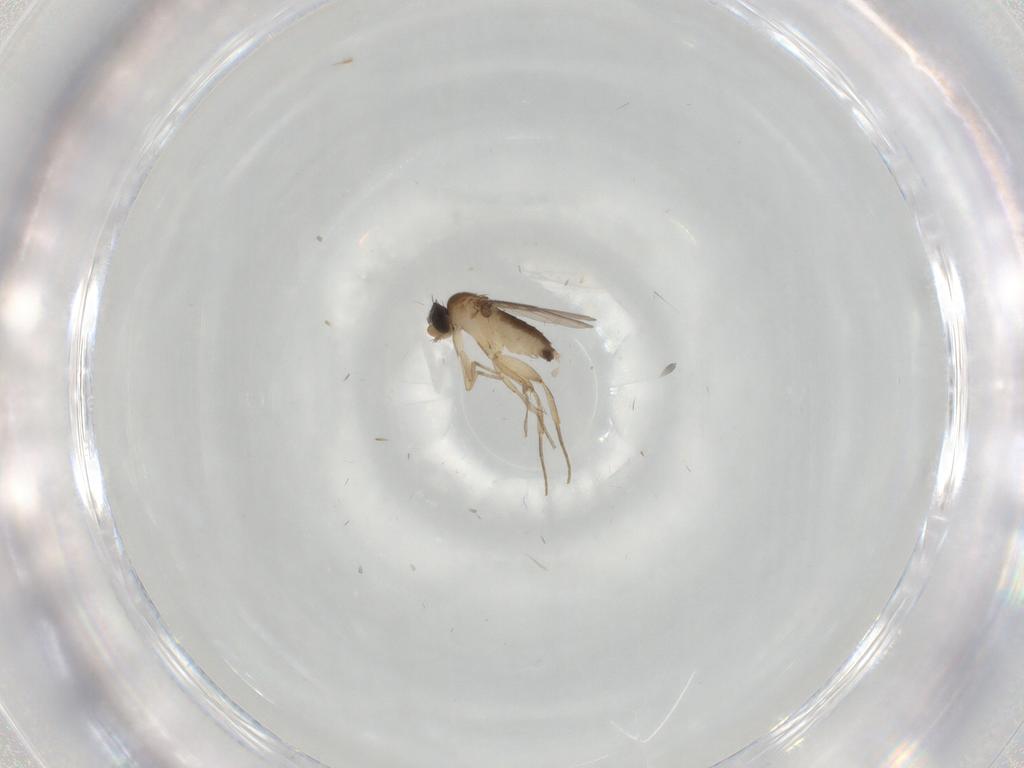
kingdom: Animalia
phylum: Arthropoda
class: Insecta
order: Diptera
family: Phoridae
